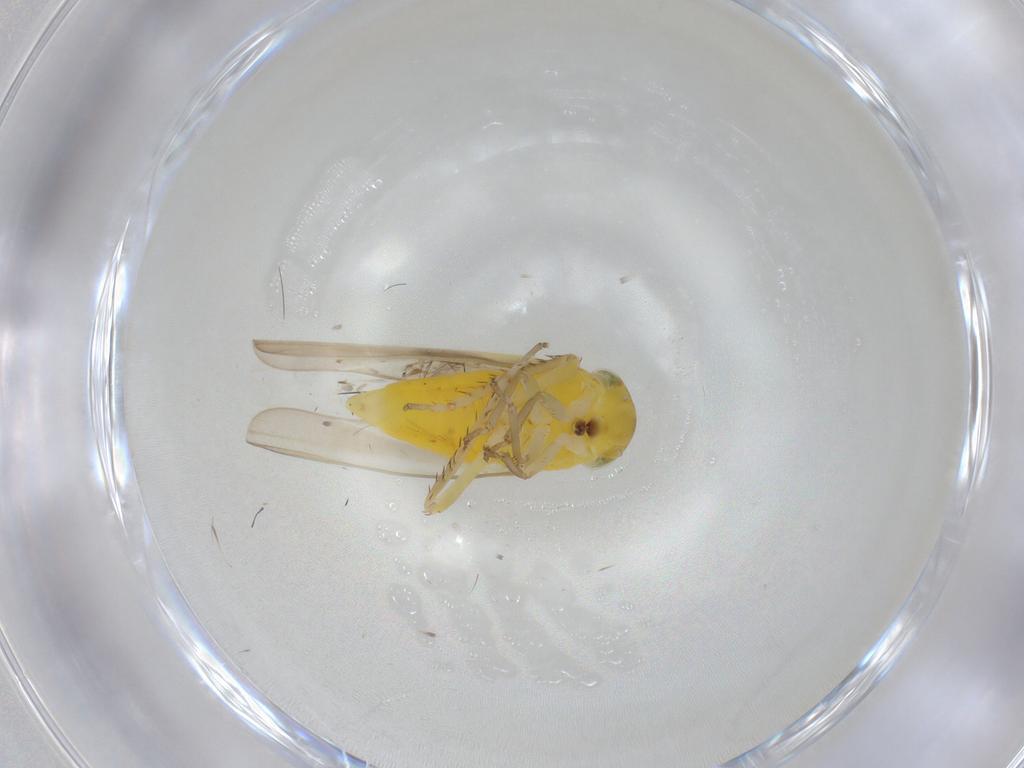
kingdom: Animalia
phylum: Arthropoda
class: Insecta
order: Hemiptera
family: Cicadellidae
